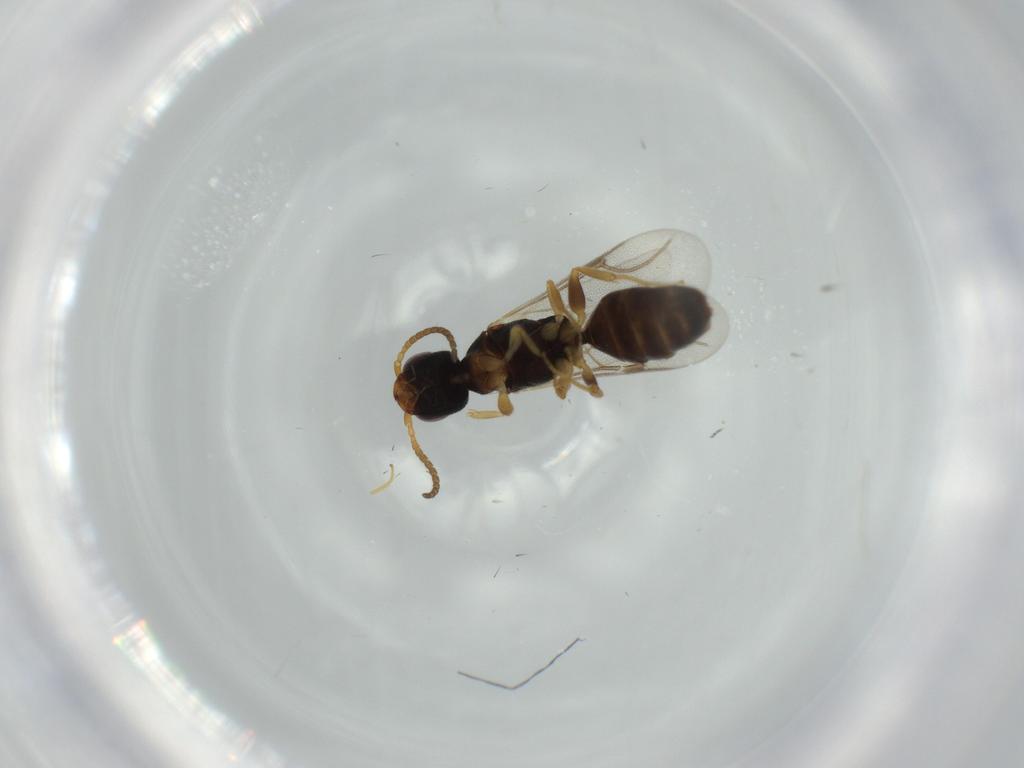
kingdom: Animalia
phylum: Arthropoda
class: Insecta
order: Hymenoptera
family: Bethylidae
